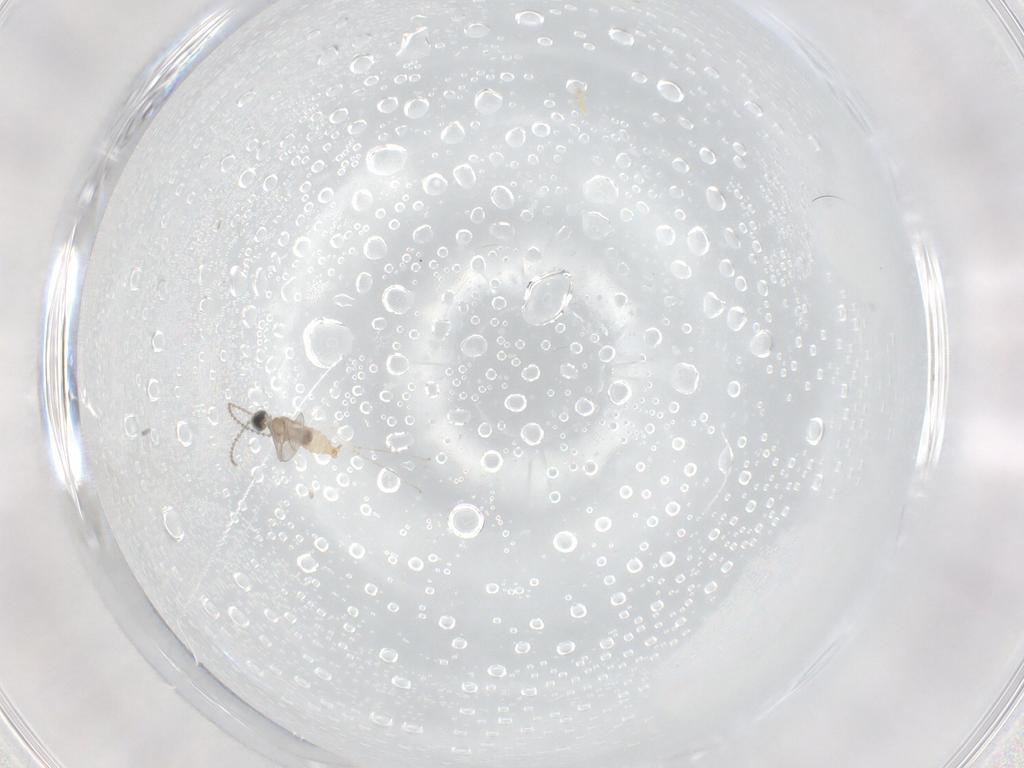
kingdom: Animalia
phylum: Arthropoda
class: Insecta
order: Diptera
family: Cecidomyiidae
